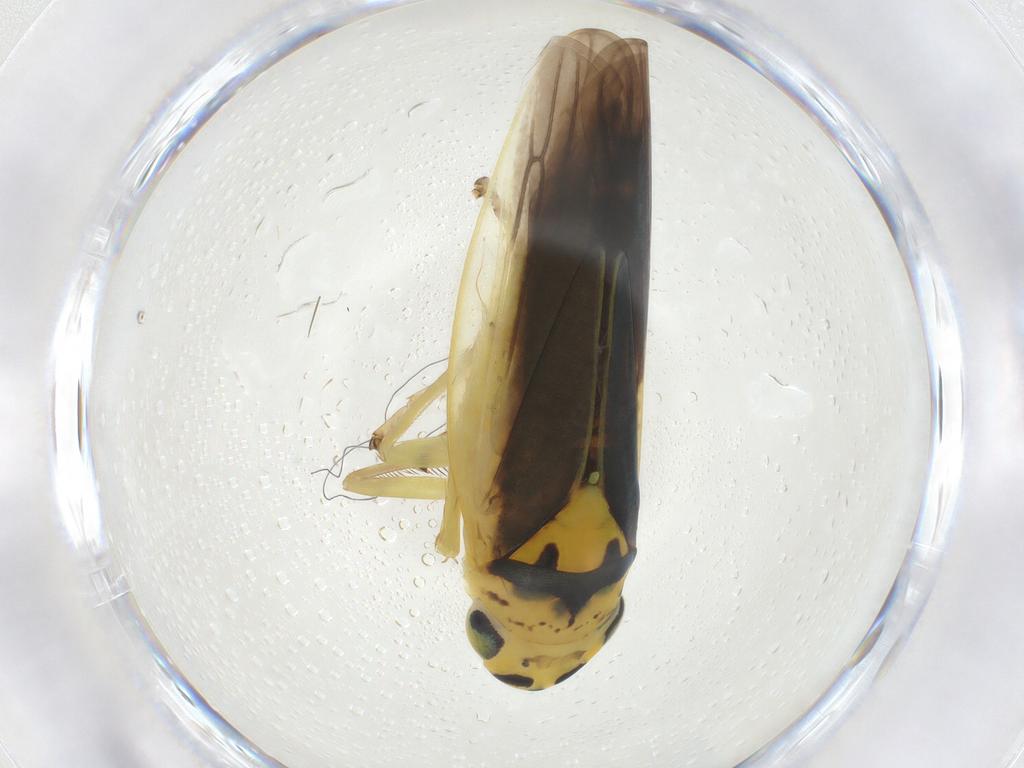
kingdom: Animalia
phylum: Arthropoda
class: Insecta
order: Hemiptera
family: Cicadellidae
